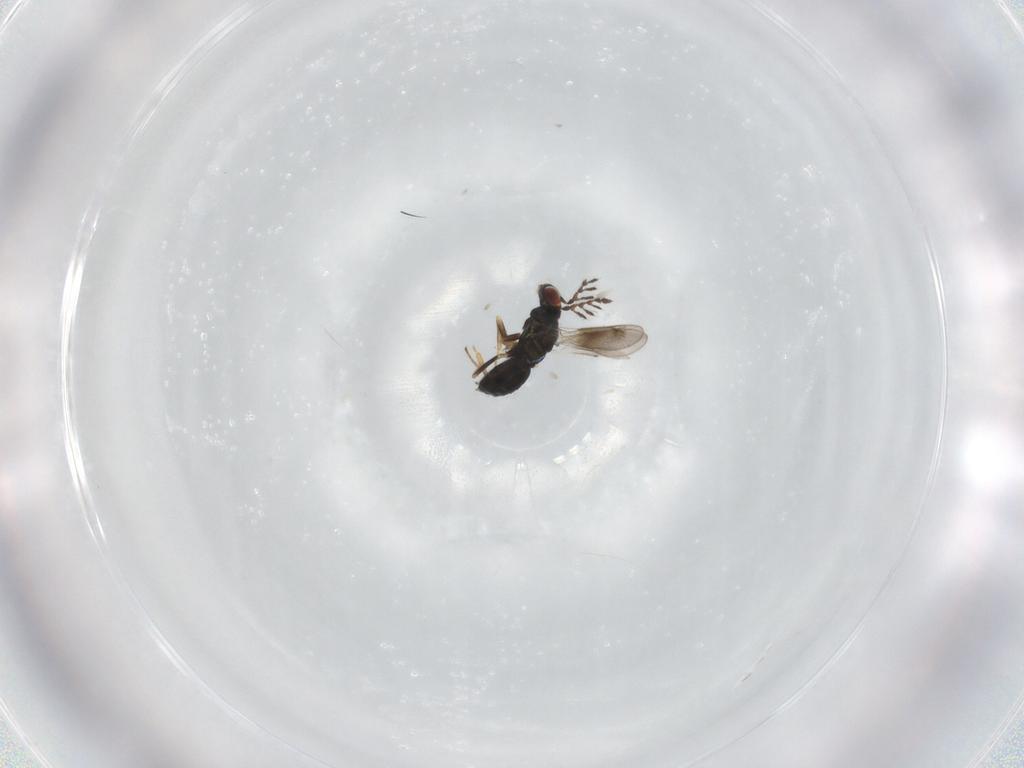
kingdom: Animalia
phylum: Arthropoda
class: Insecta
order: Hymenoptera
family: Eulophidae
